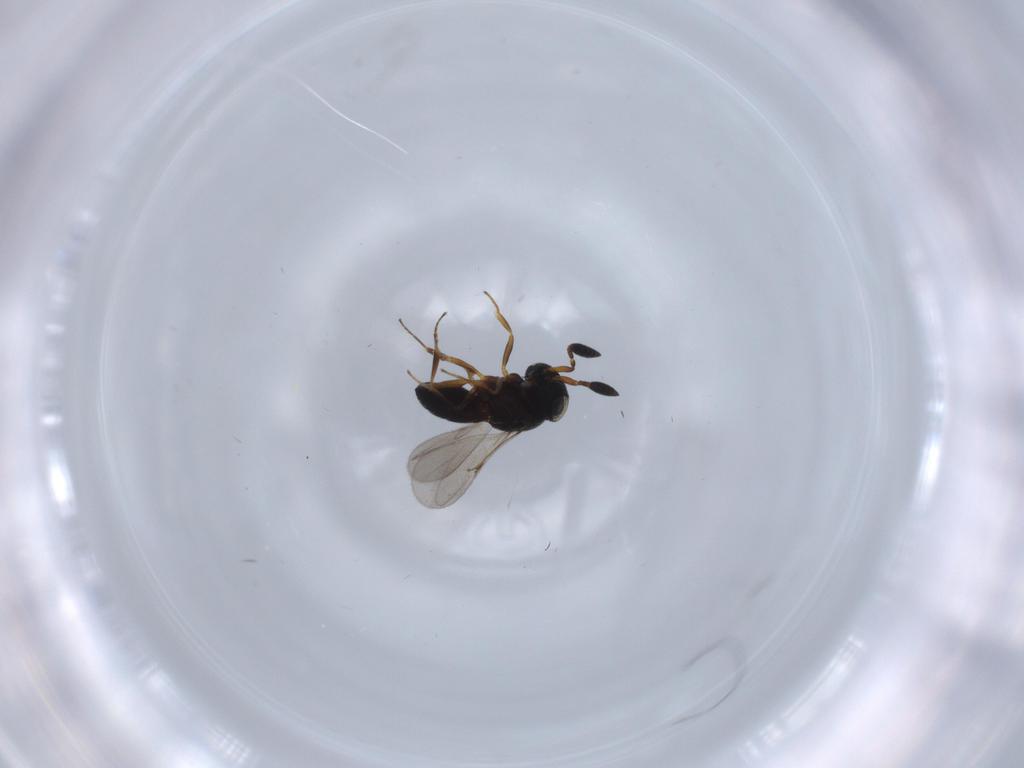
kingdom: Animalia
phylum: Arthropoda
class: Insecta
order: Hymenoptera
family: Scelionidae
